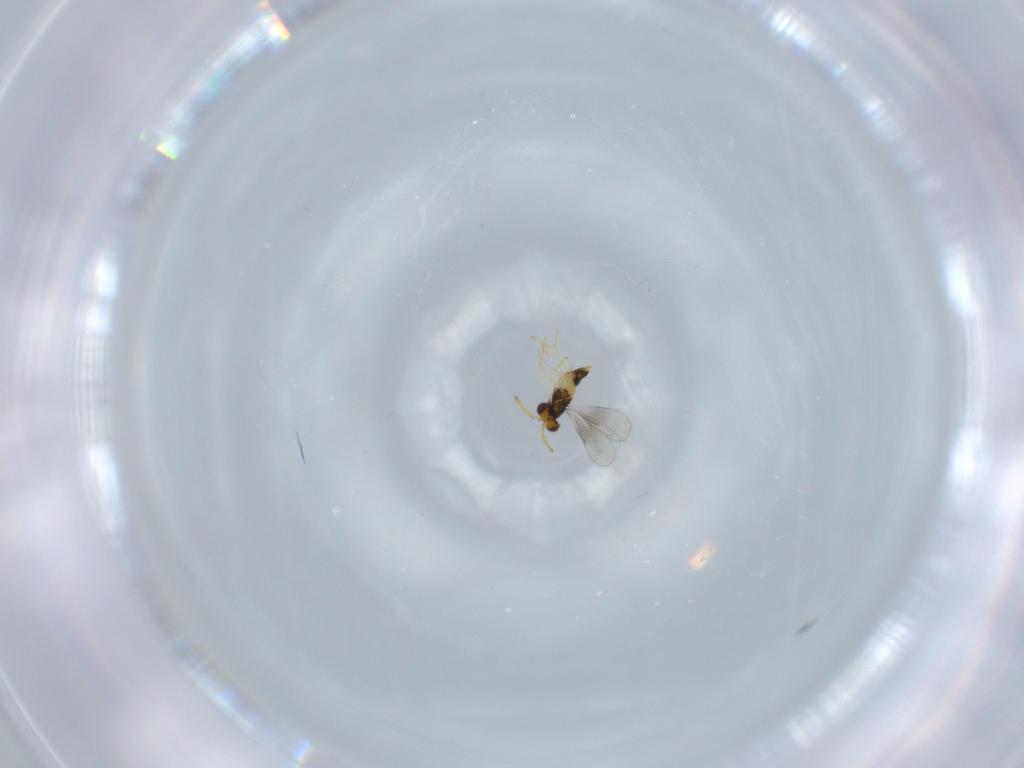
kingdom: Animalia
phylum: Arthropoda
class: Insecta
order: Hymenoptera
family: Aphelinidae
